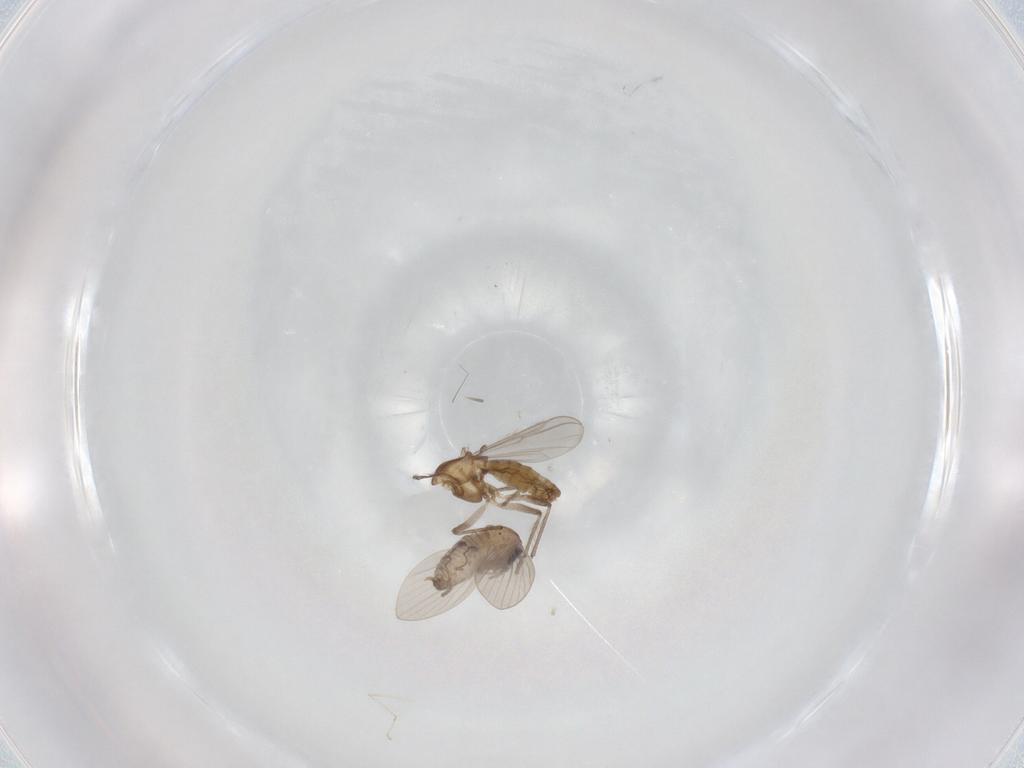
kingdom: Animalia
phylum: Arthropoda
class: Insecta
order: Diptera
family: Chironomidae
